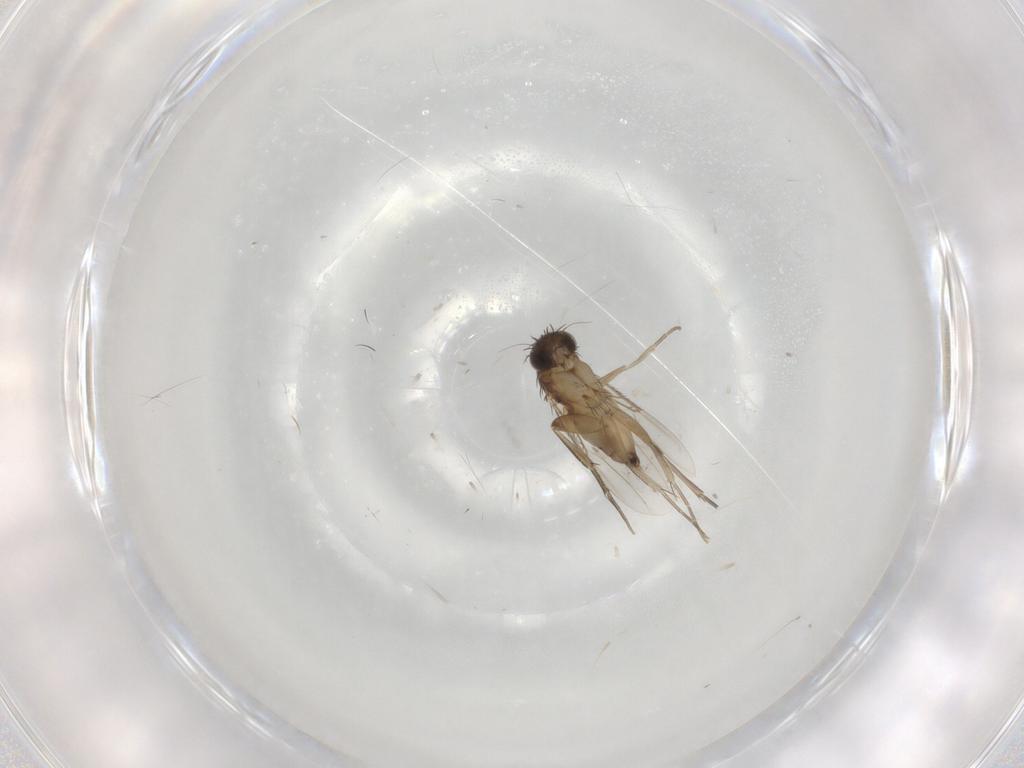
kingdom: Animalia
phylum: Arthropoda
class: Insecta
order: Diptera
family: Phoridae
